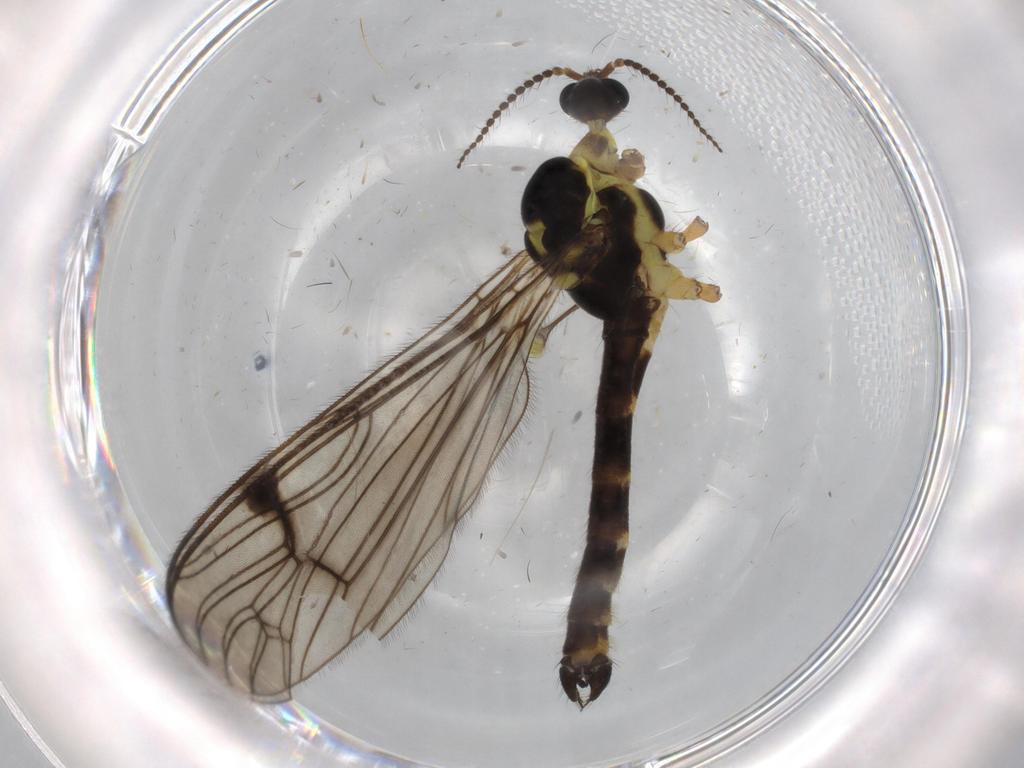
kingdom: Animalia
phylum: Arthropoda
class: Insecta
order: Diptera
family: Limoniidae
